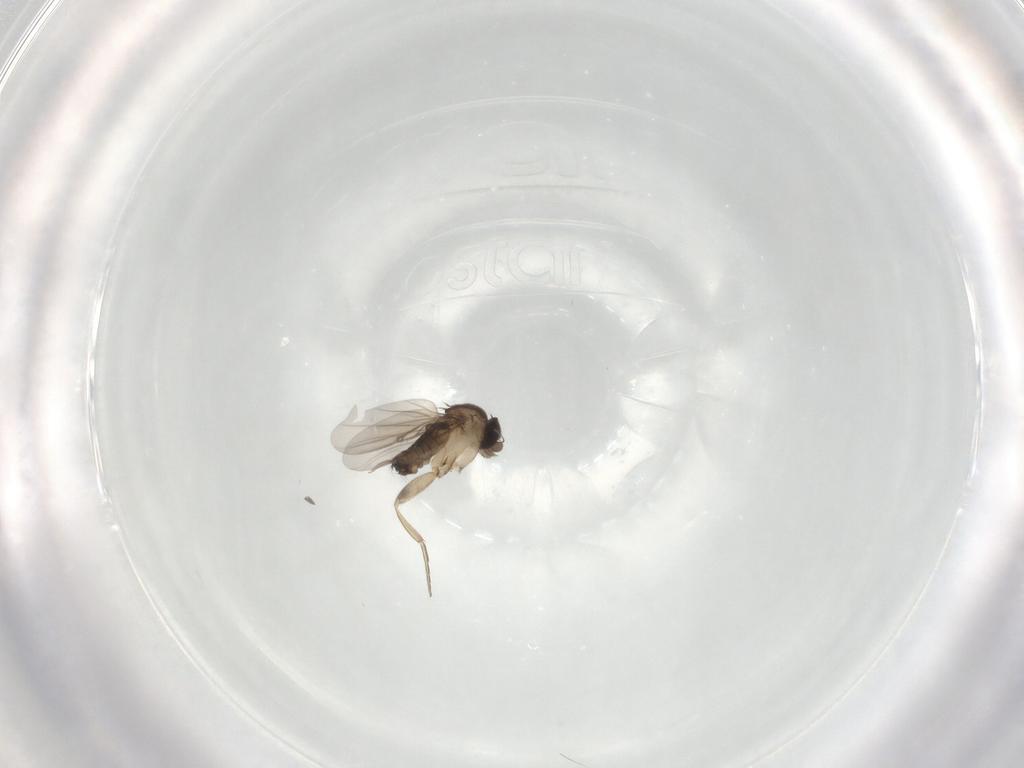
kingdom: Animalia
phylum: Arthropoda
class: Insecta
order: Diptera
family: Phoridae
